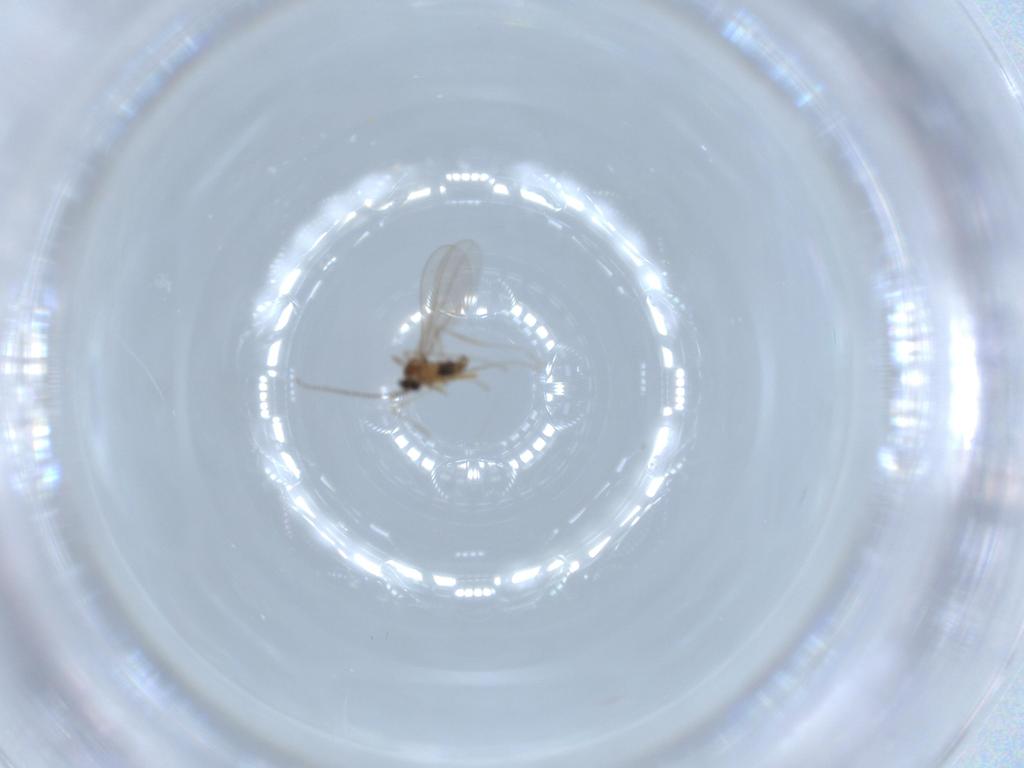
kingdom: Animalia
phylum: Arthropoda
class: Insecta
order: Diptera
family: Cecidomyiidae
